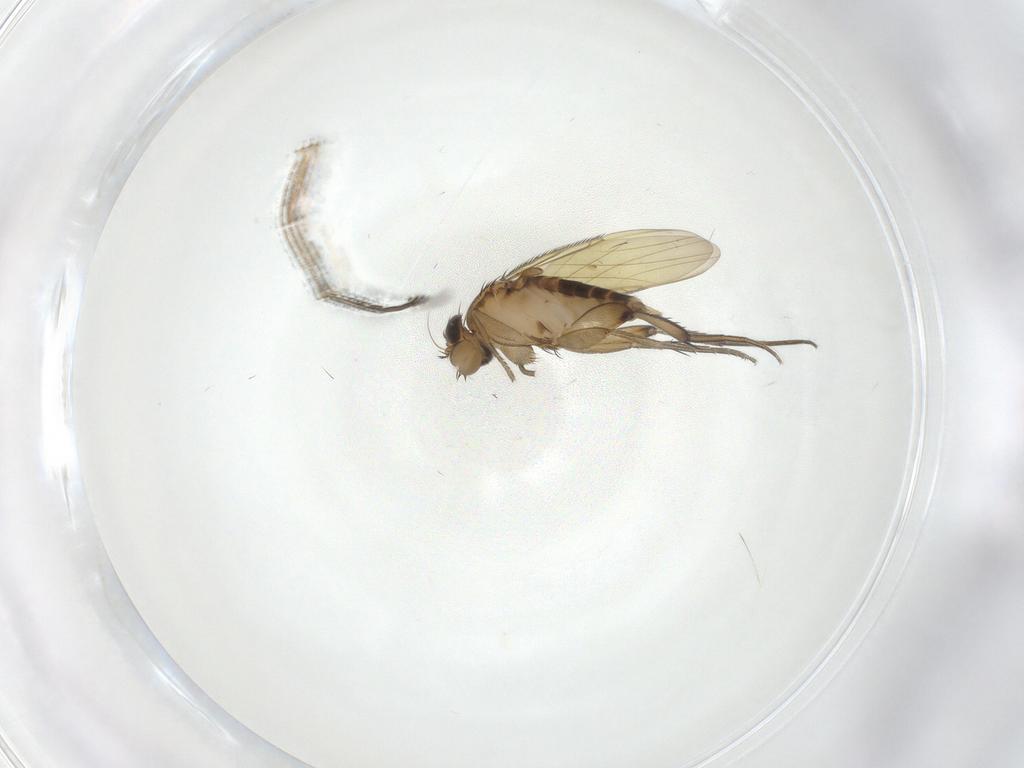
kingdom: Animalia
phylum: Arthropoda
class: Insecta
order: Diptera
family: Phoridae
